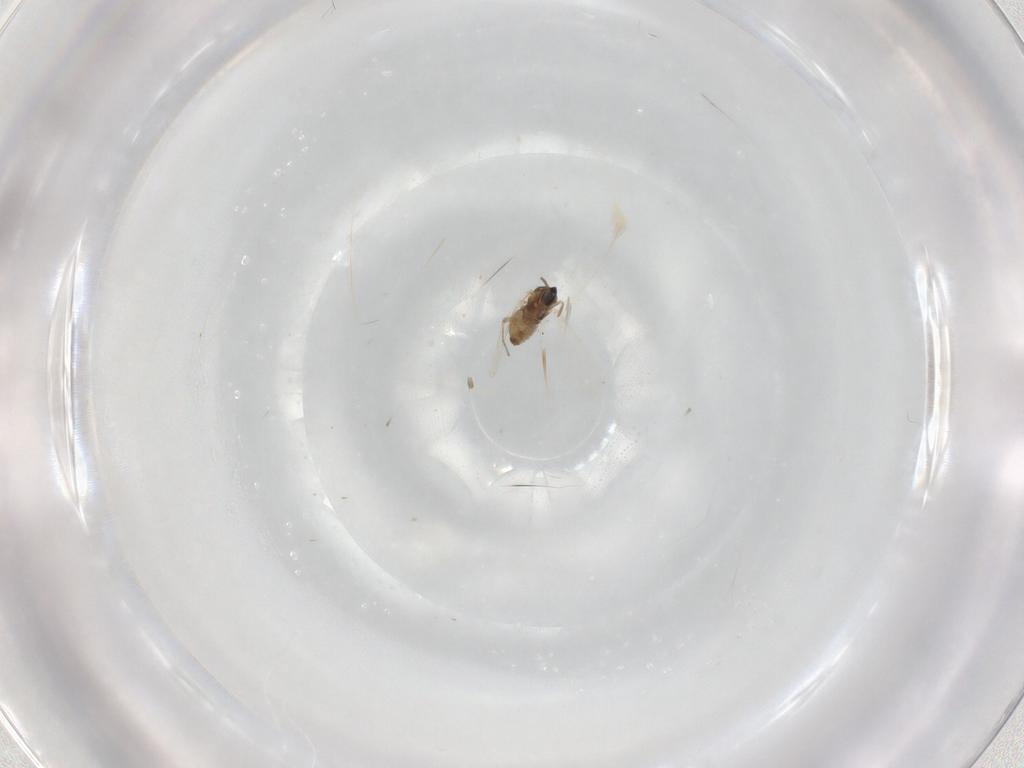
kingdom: Animalia
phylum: Arthropoda
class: Insecta
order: Diptera
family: Cecidomyiidae
